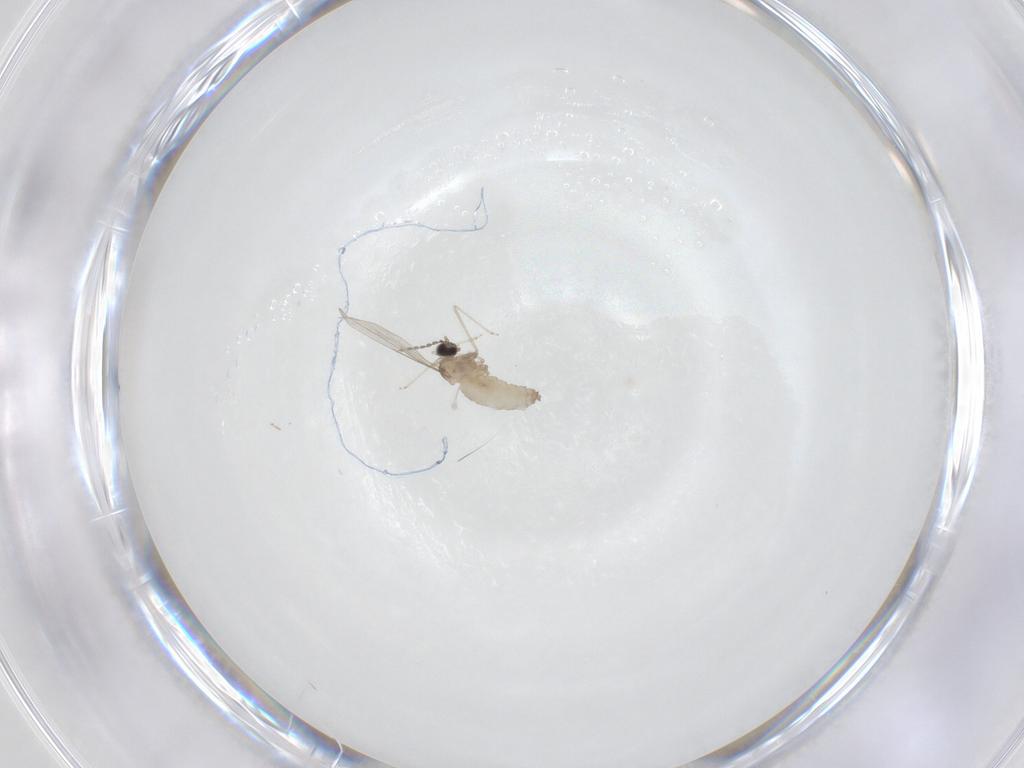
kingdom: Animalia
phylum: Arthropoda
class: Insecta
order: Diptera
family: Cecidomyiidae
